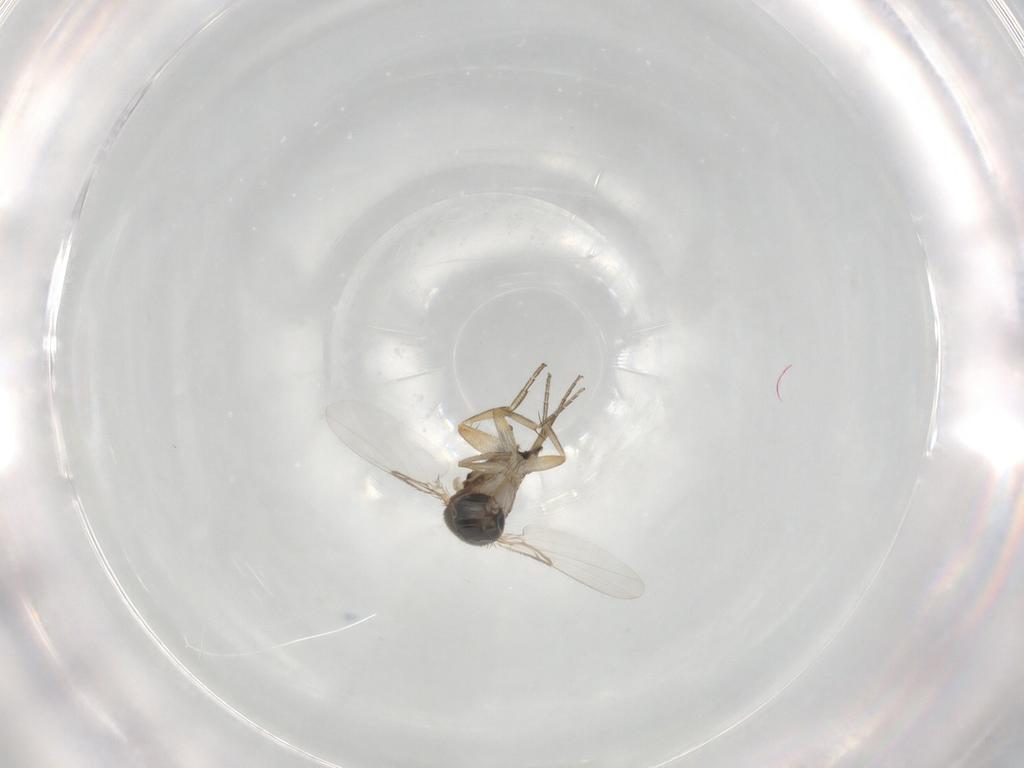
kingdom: Animalia
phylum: Arthropoda
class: Insecta
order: Diptera
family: Phoridae
